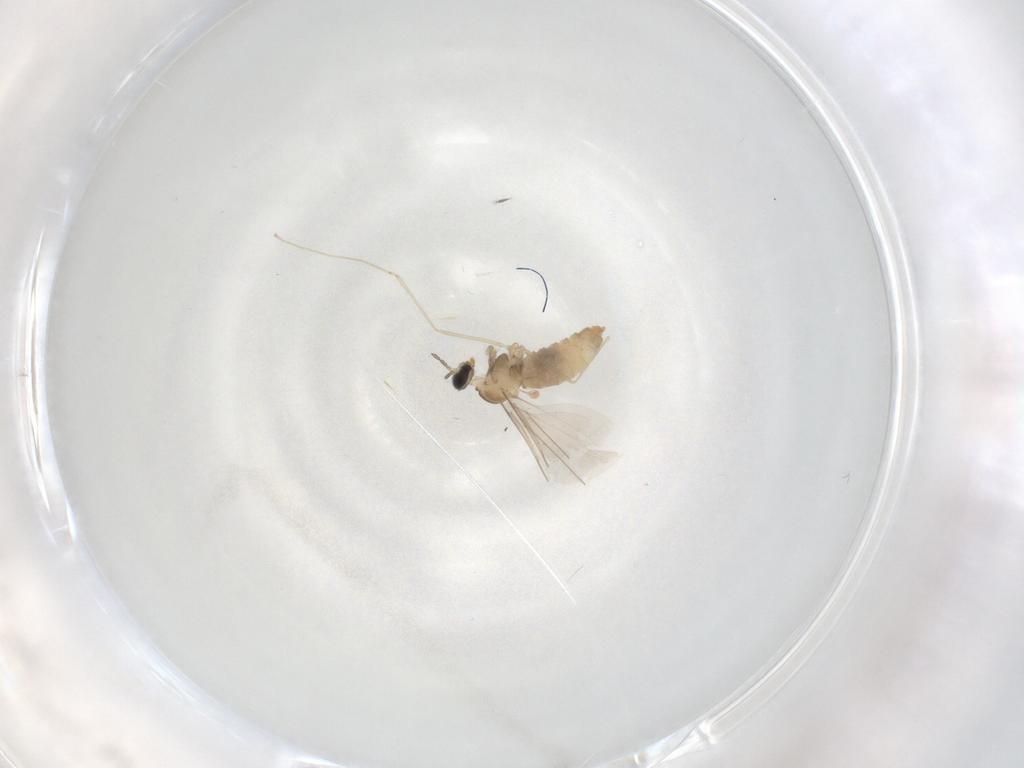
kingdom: Animalia
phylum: Arthropoda
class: Insecta
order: Diptera
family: Cecidomyiidae
